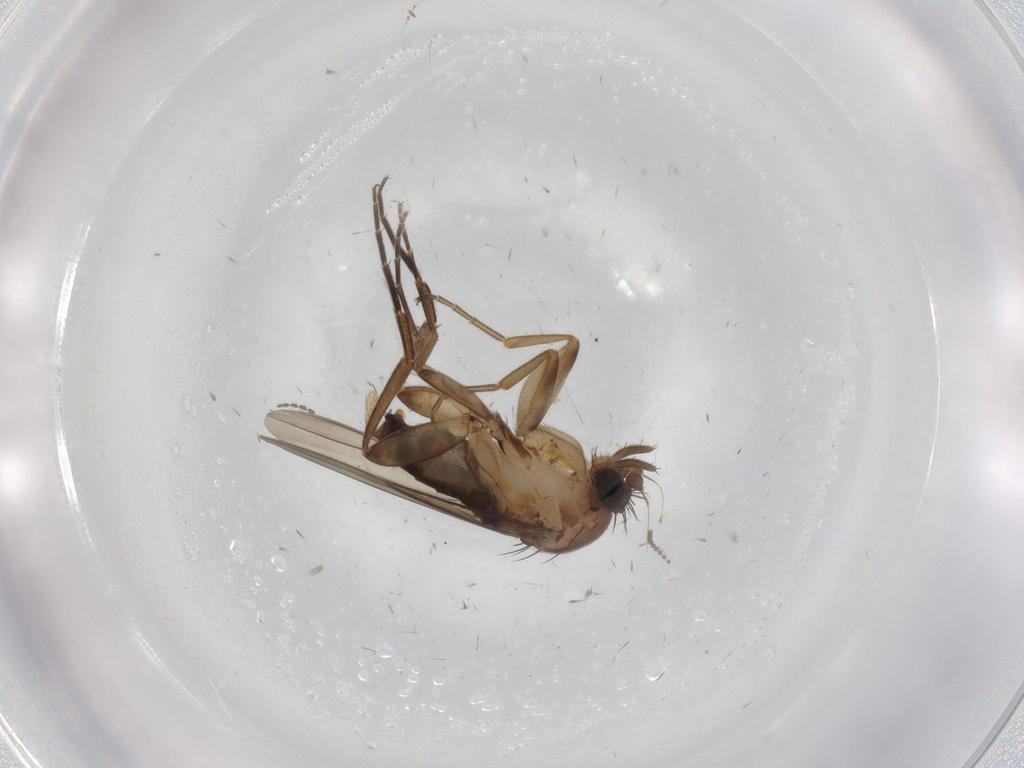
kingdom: Animalia
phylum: Arthropoda
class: Insecta
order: Diptera
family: Phoridae
